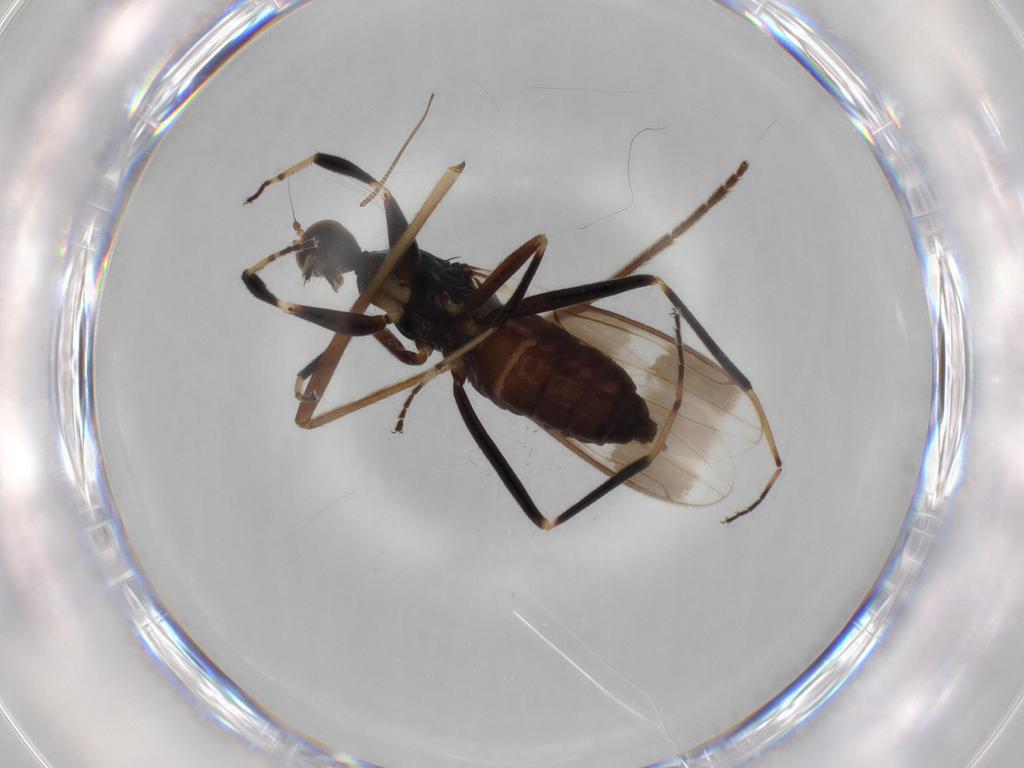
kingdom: Animalia
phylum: Arthropoda
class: Insecta
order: Diptera
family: Hybotidae
